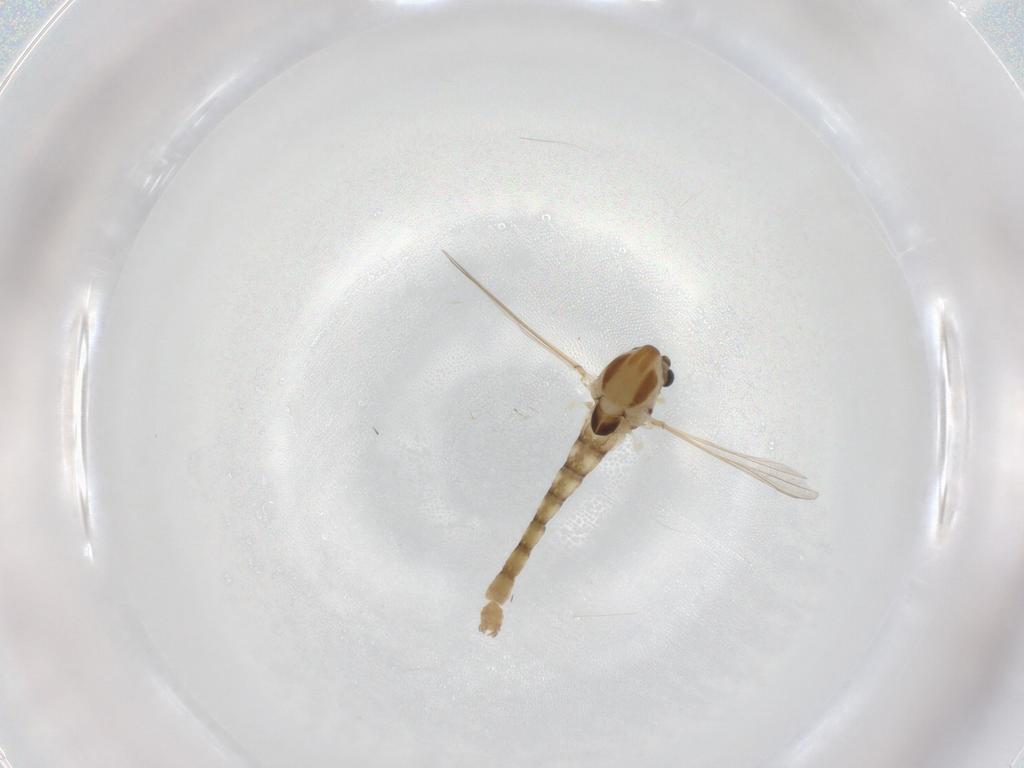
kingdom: Animalia
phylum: Arthropoda
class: Insecta
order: Diptera
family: Chironomidae
